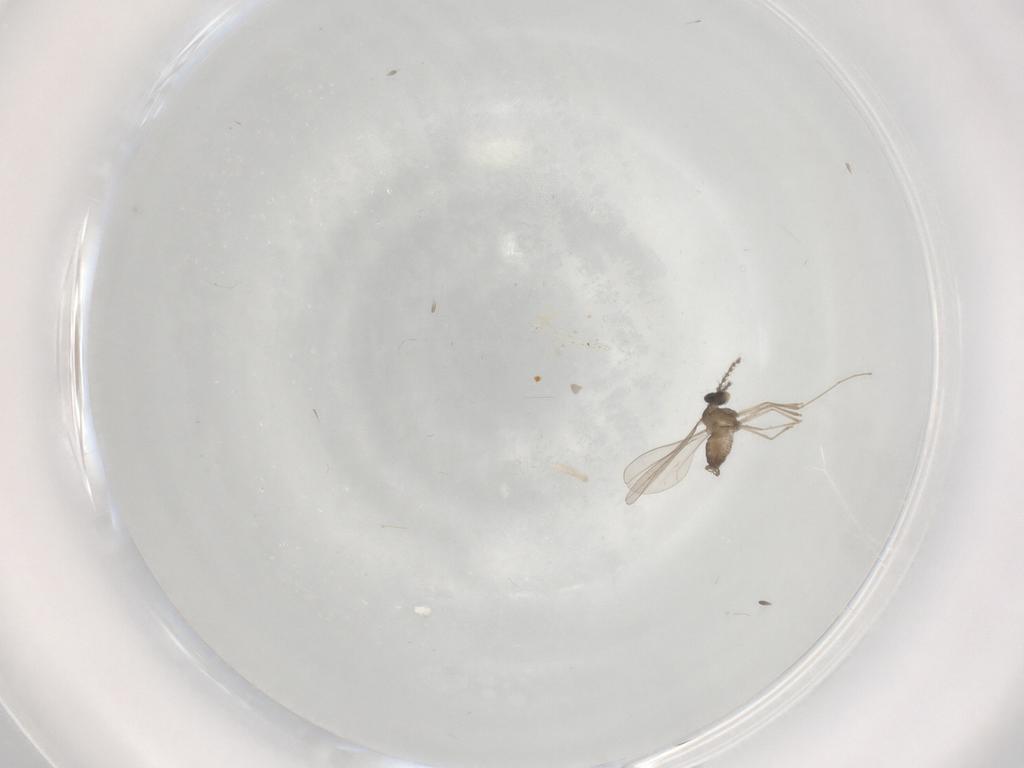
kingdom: Animalia
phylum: Arthropoda
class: Insecta
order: Diptera
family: Cecidomyiidae
